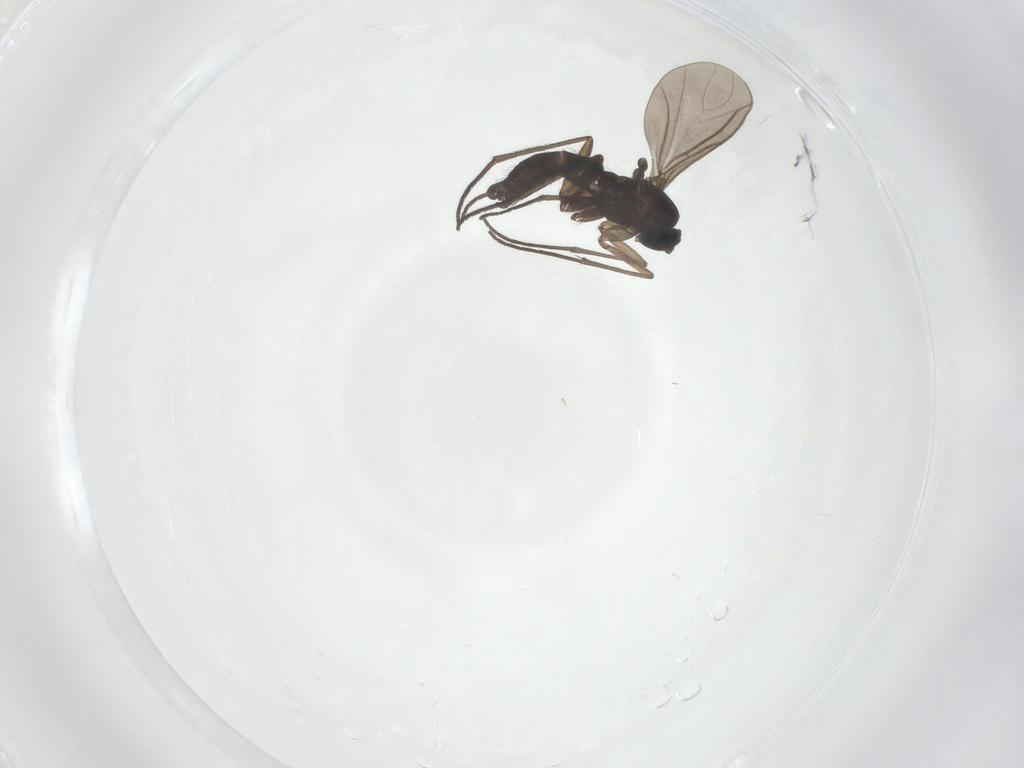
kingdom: Animalia
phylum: Arthropoda
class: Insecta
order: Diptera
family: Sciaridae
